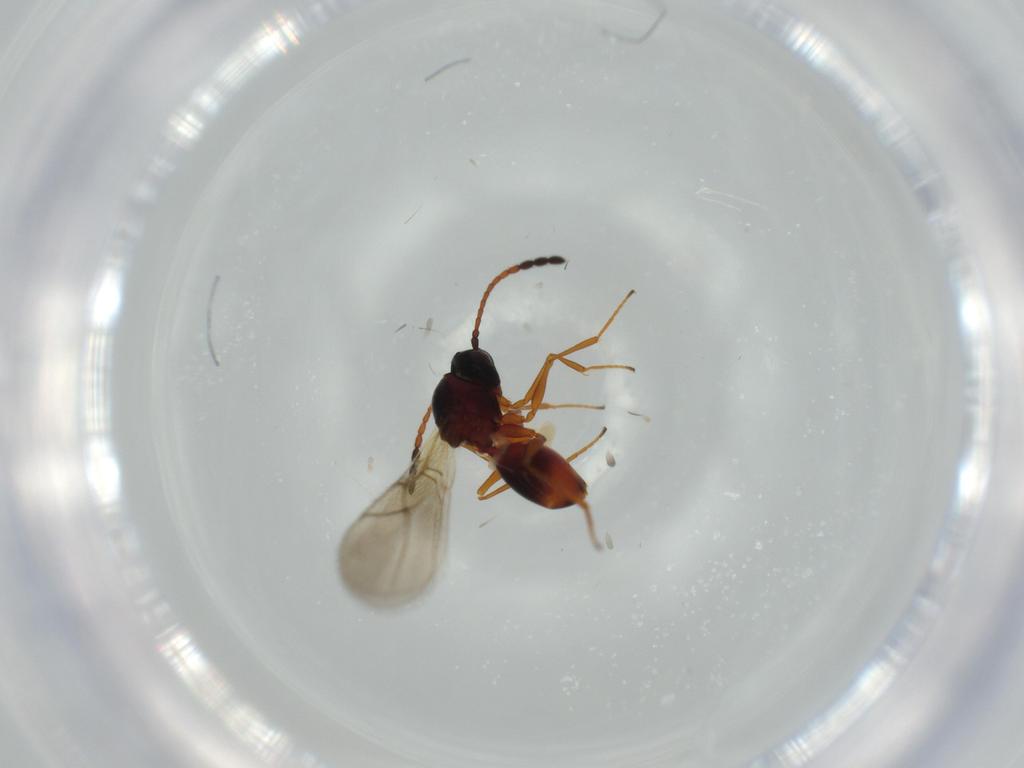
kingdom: Animalia
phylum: Arthropoda
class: Insecta
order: Hymenoptera
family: Figitidae
